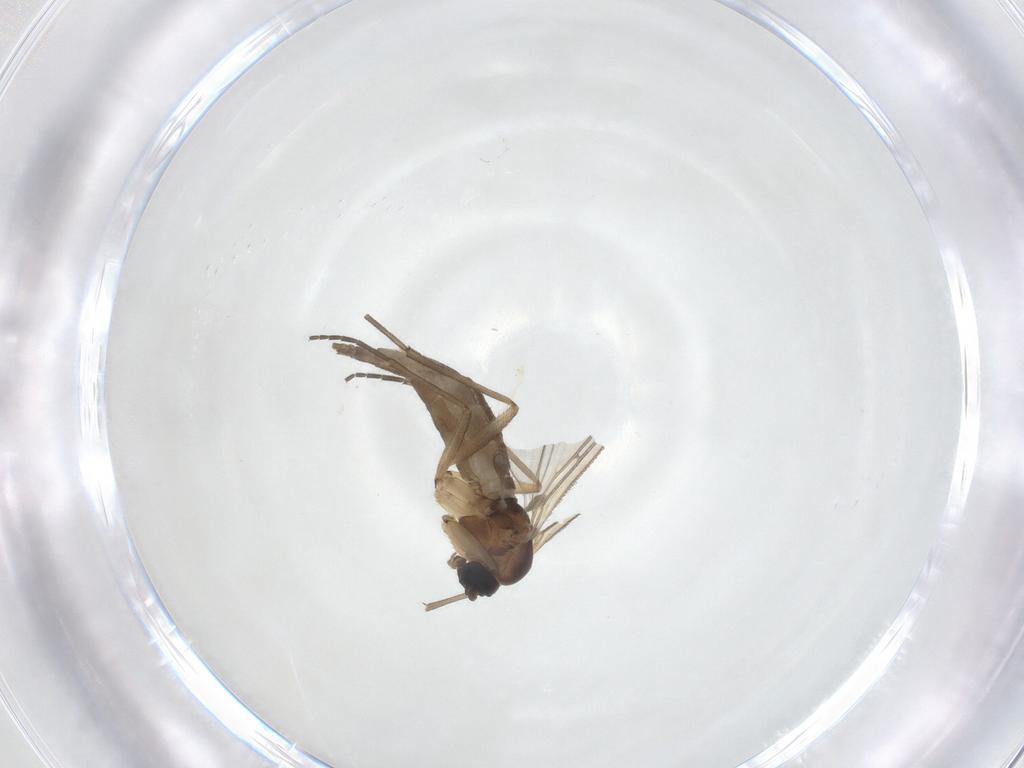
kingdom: Animalia
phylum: Arthropoda
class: Insecta
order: Diptera
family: Sciaridae
